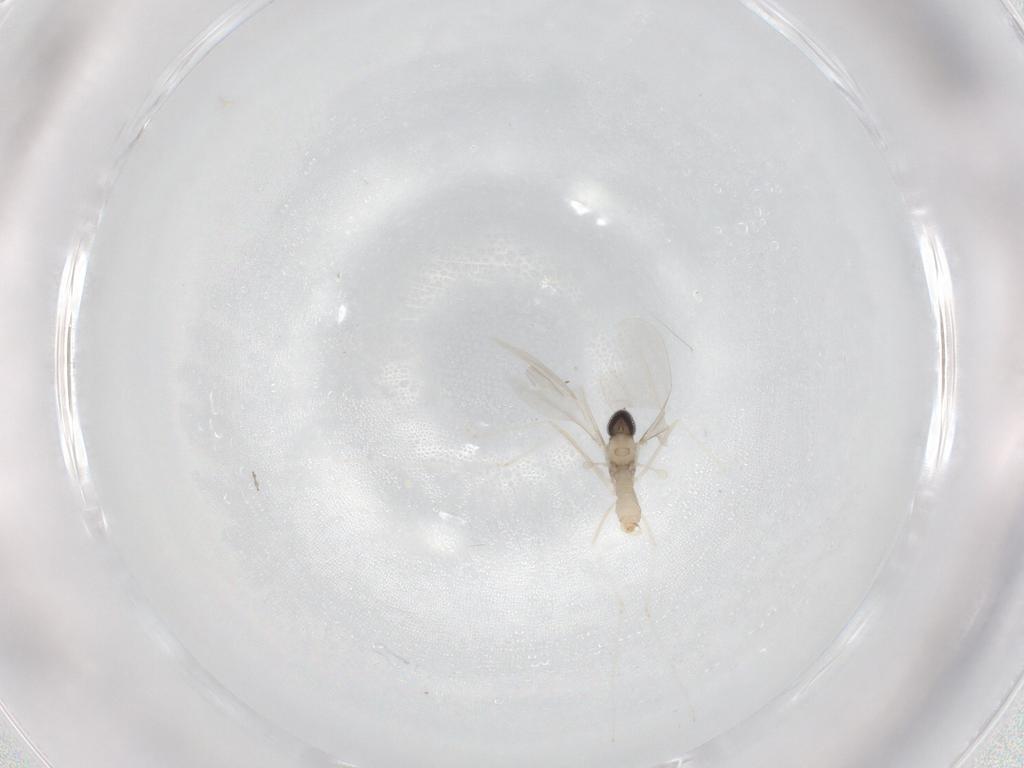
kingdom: Animalia
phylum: Arthropoda
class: Insecta
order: Diptera
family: Cecidomyiidae
